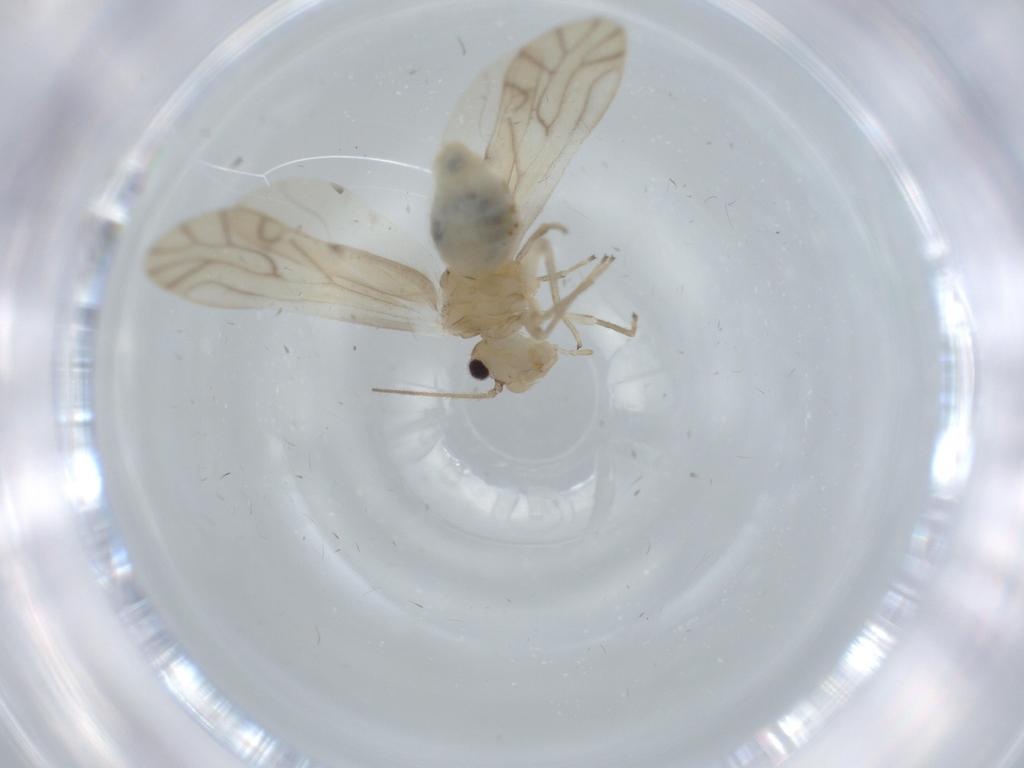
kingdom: Animalia
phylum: Arthropoda
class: Insecta
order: Psocodea
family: Caeciliusidae
